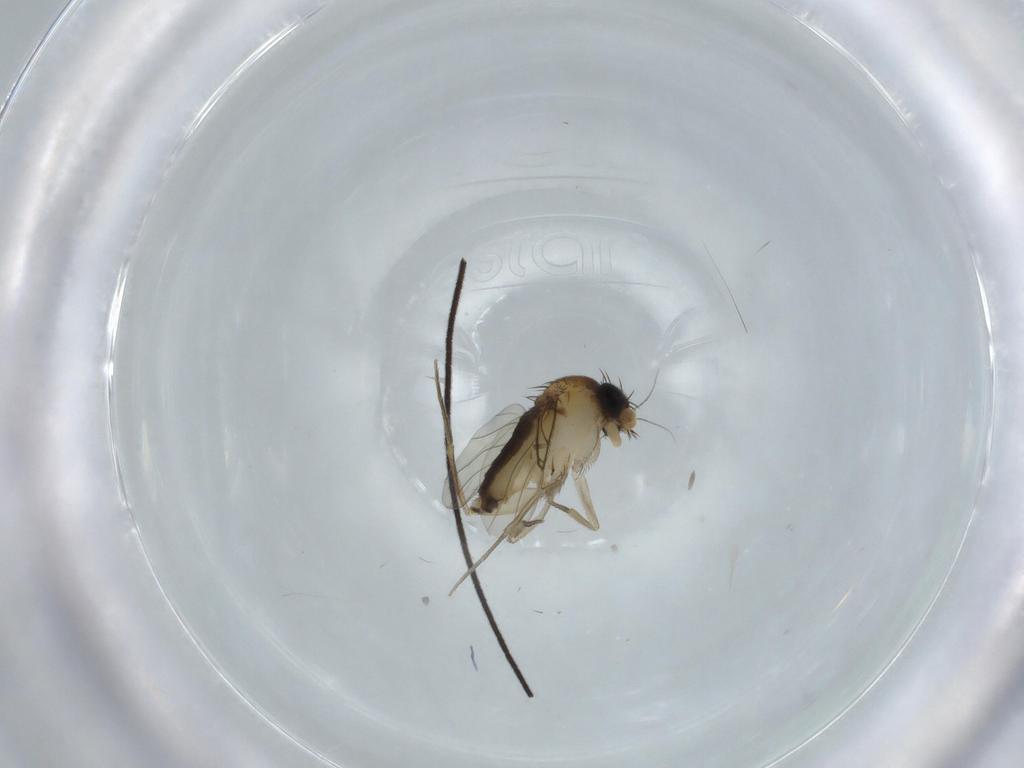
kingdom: Animalia
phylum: Arthropoda
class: Insecta
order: Diptera
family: Phoridae
